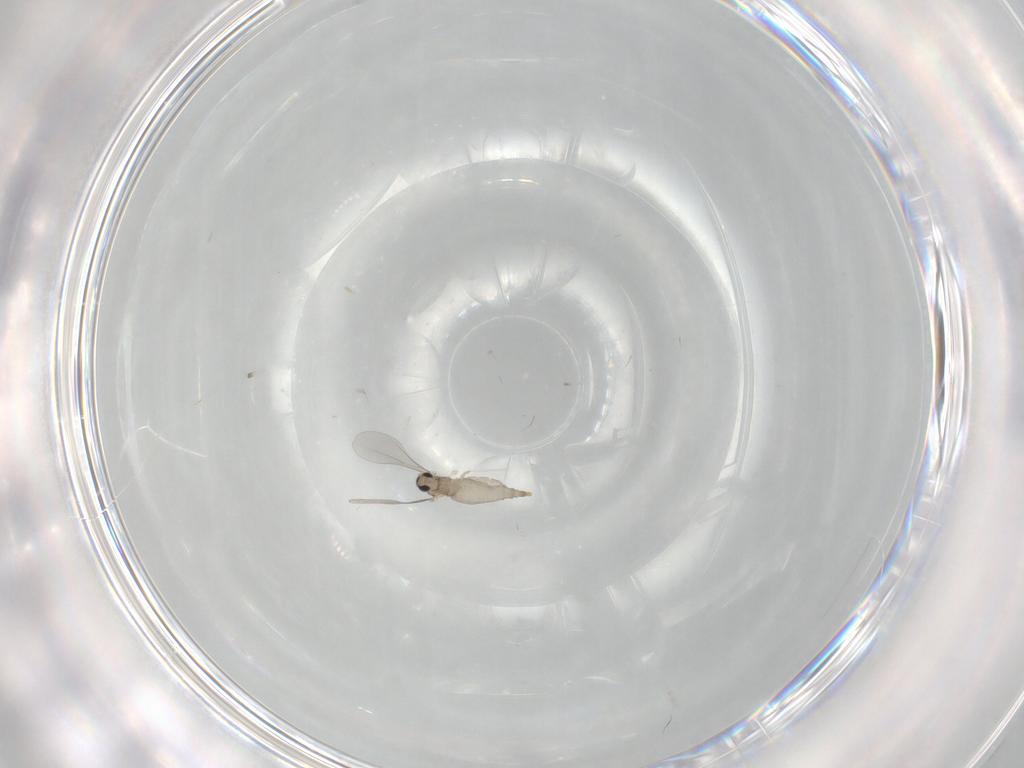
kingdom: Animalia
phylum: Arthropoda
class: Insecta
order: Diptera
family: Cecidomyiidae
